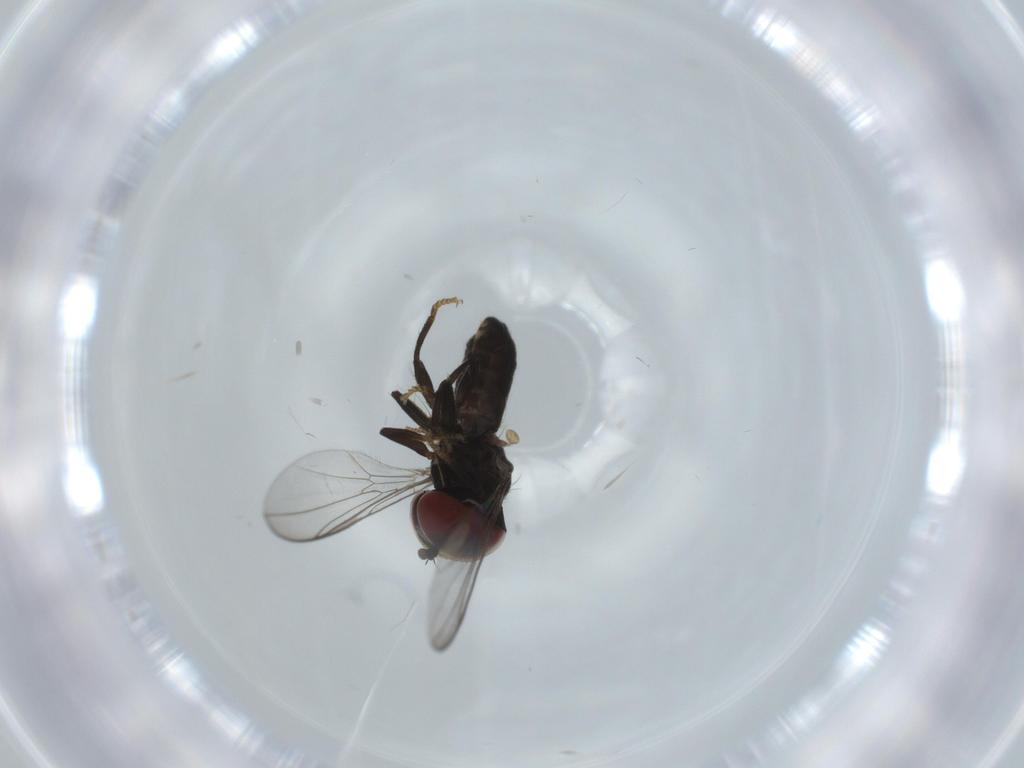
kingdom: Animalia
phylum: Arthropoda
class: Insecta
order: Diptera
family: Pipunculidae
